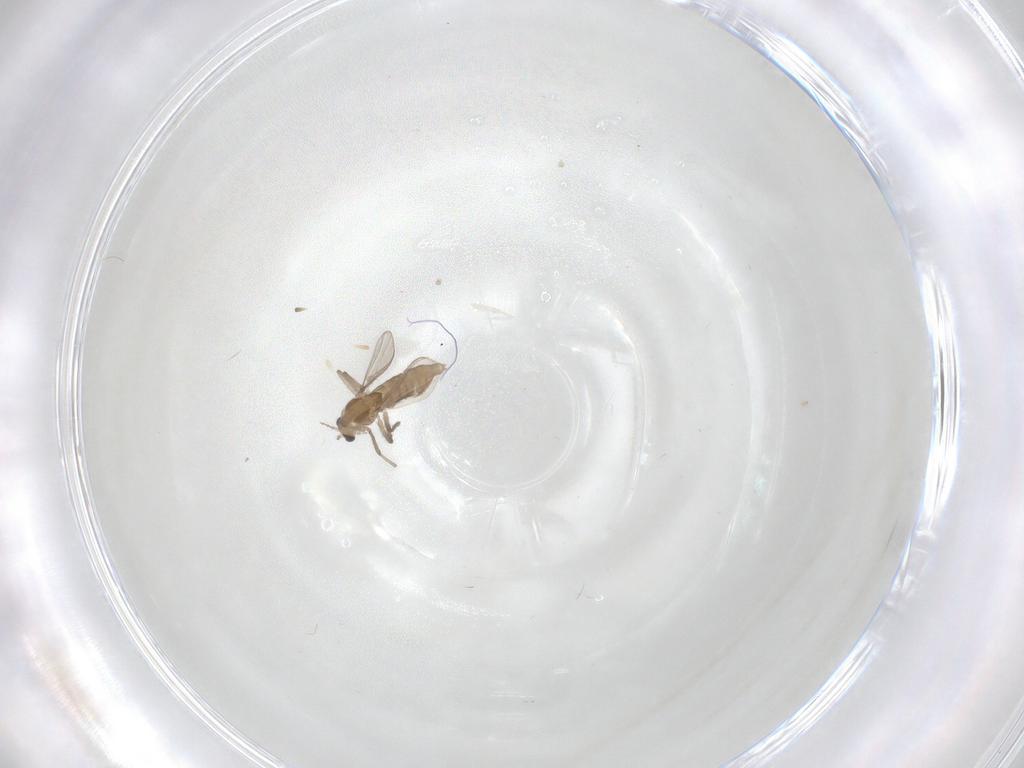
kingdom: Animalia
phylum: Arthropoda
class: Insecta
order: Diptera
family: Chironomidae
